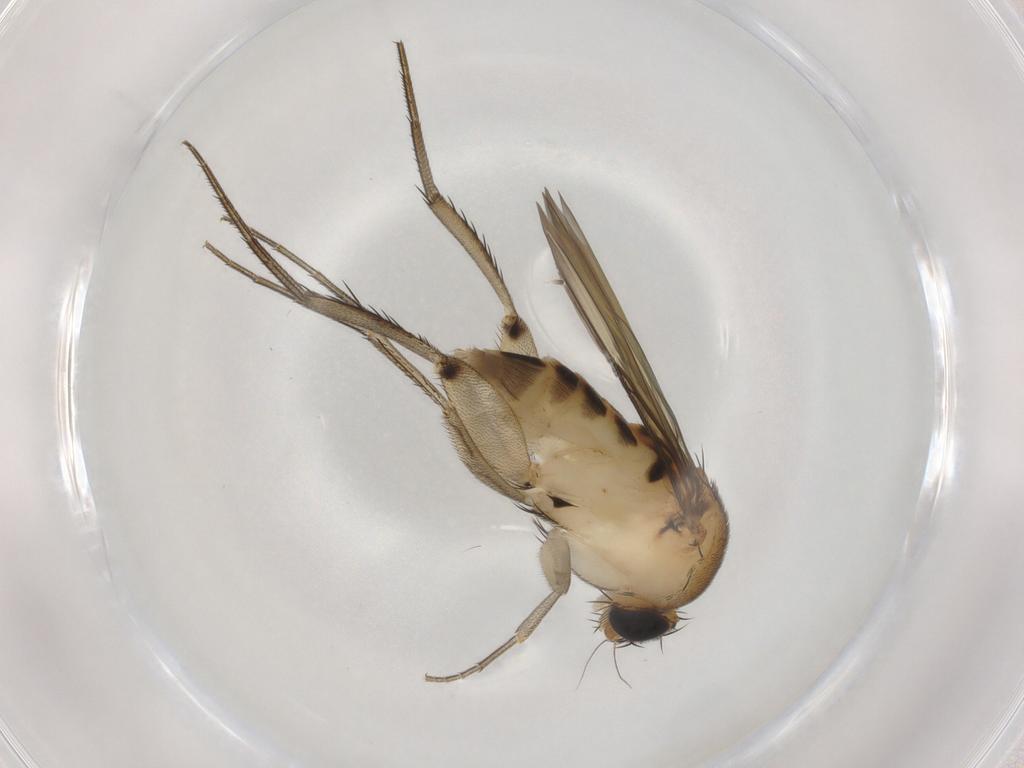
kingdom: Animalia
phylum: Arthropoda
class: Insecta
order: Diptera
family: Phoridae
